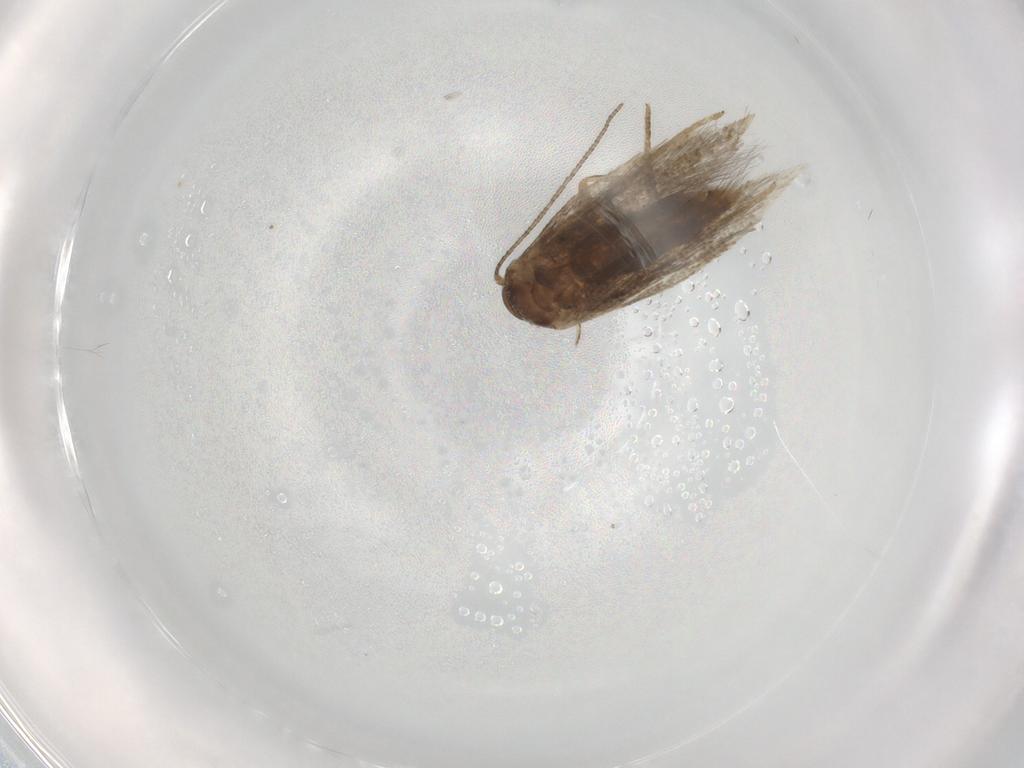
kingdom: Animalia
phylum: Arthropoda
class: Insecta
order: Lepidoptera
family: Elachistidae
